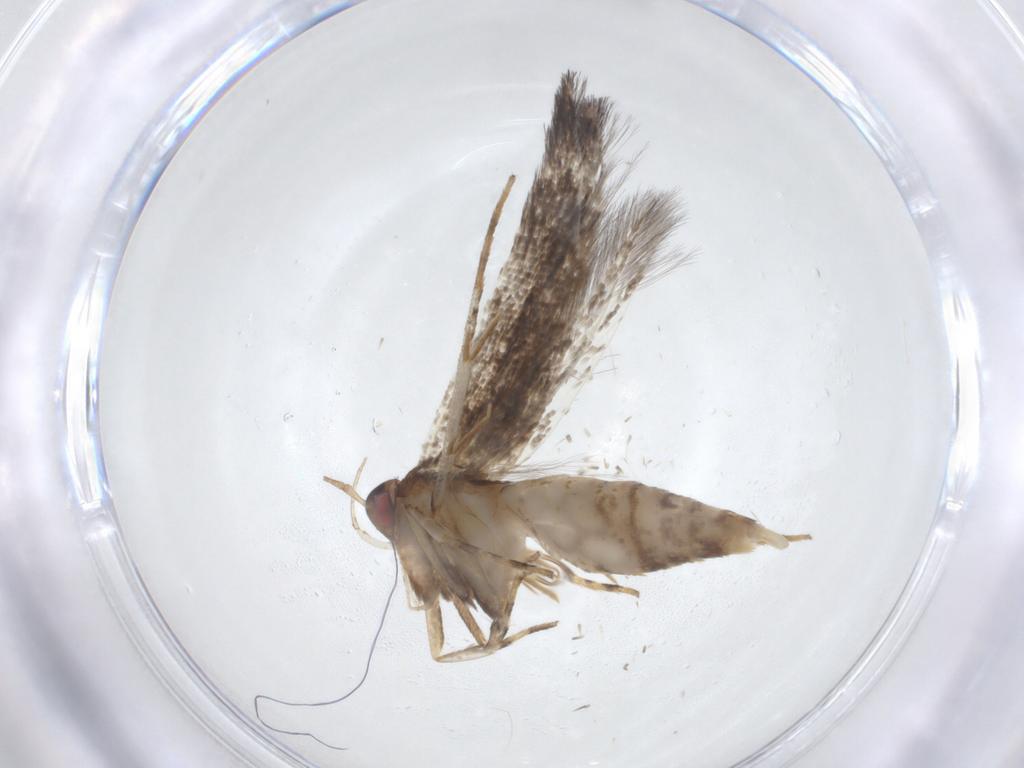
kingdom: Animalia
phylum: Arthropoda
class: Insecta
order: Lepidoptera
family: Cosmopterigidae
